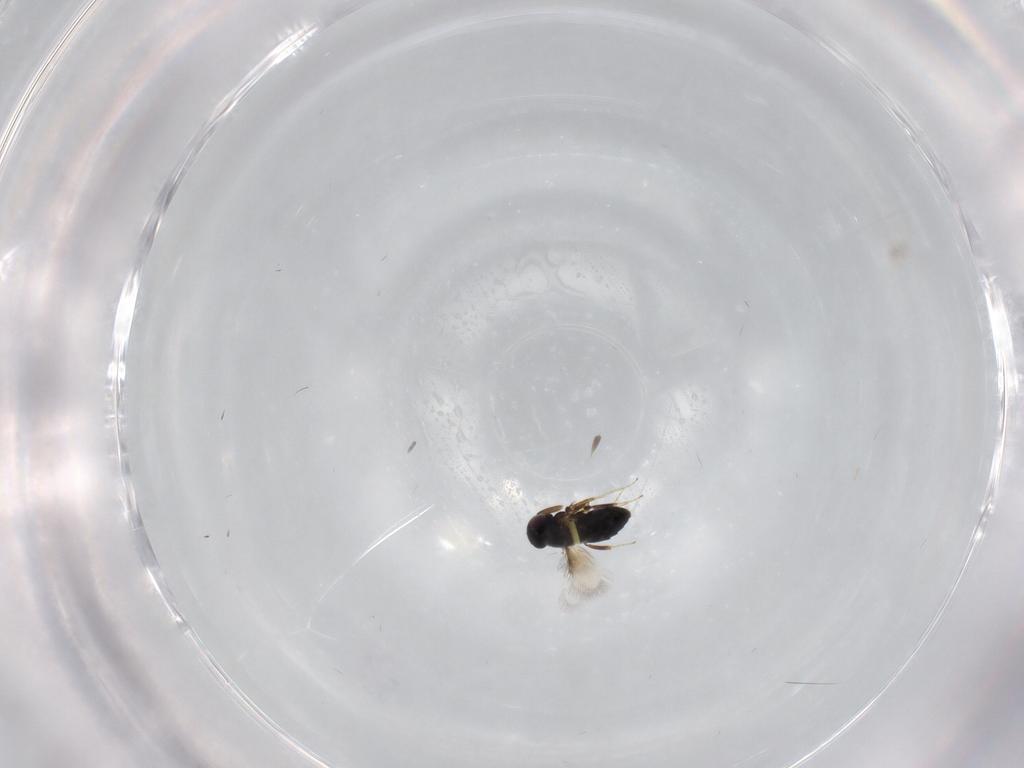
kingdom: Animalia
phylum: Arthropoda
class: Insecta
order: Hymenoptera
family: Signiphoridae
